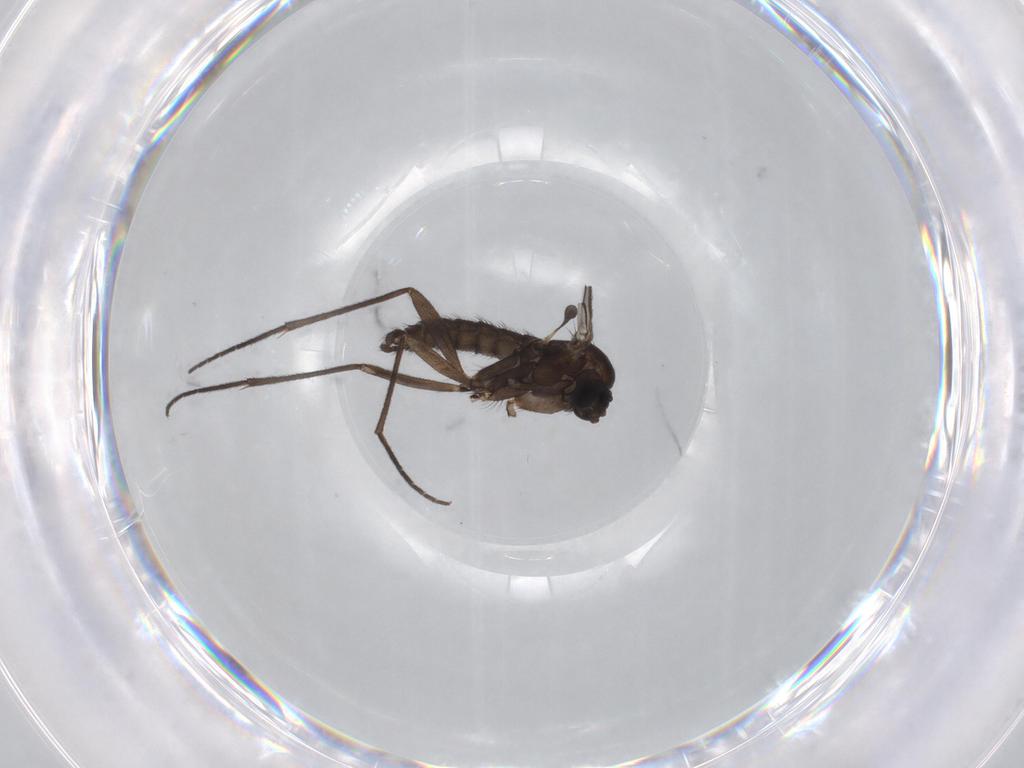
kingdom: Animalia
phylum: Arthropoda
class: Insecta
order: Diptera
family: Sciaridae
